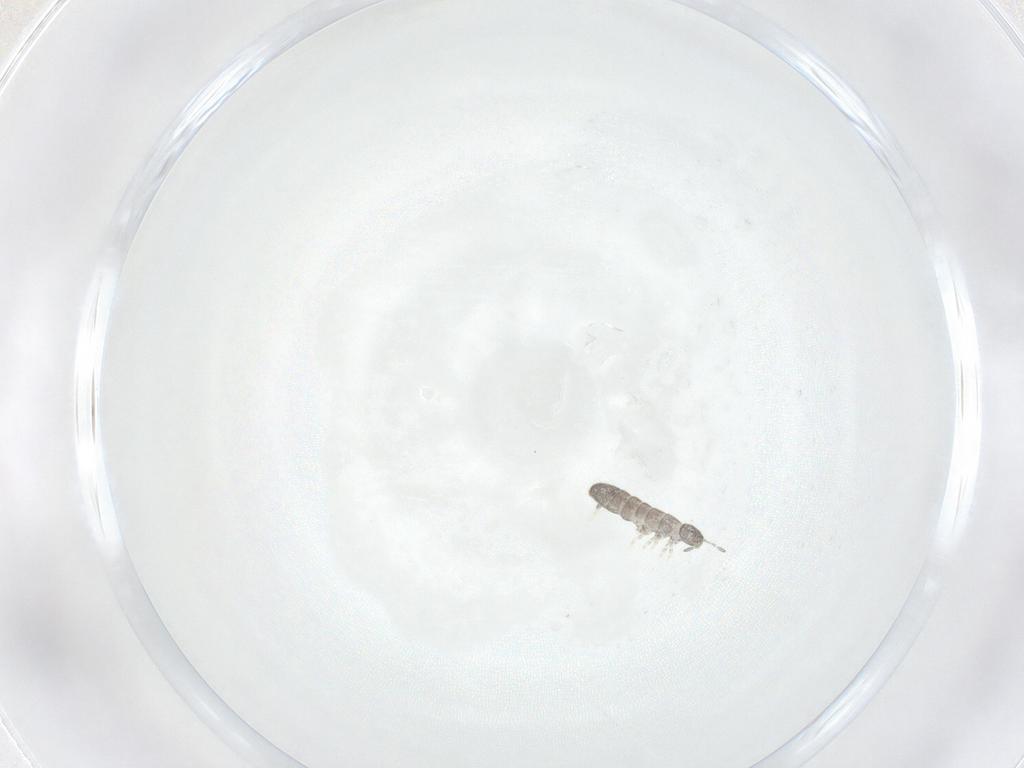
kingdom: Animalia
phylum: Arthropoda
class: Collembola
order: Entomobryomorpha
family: Isotomidae
